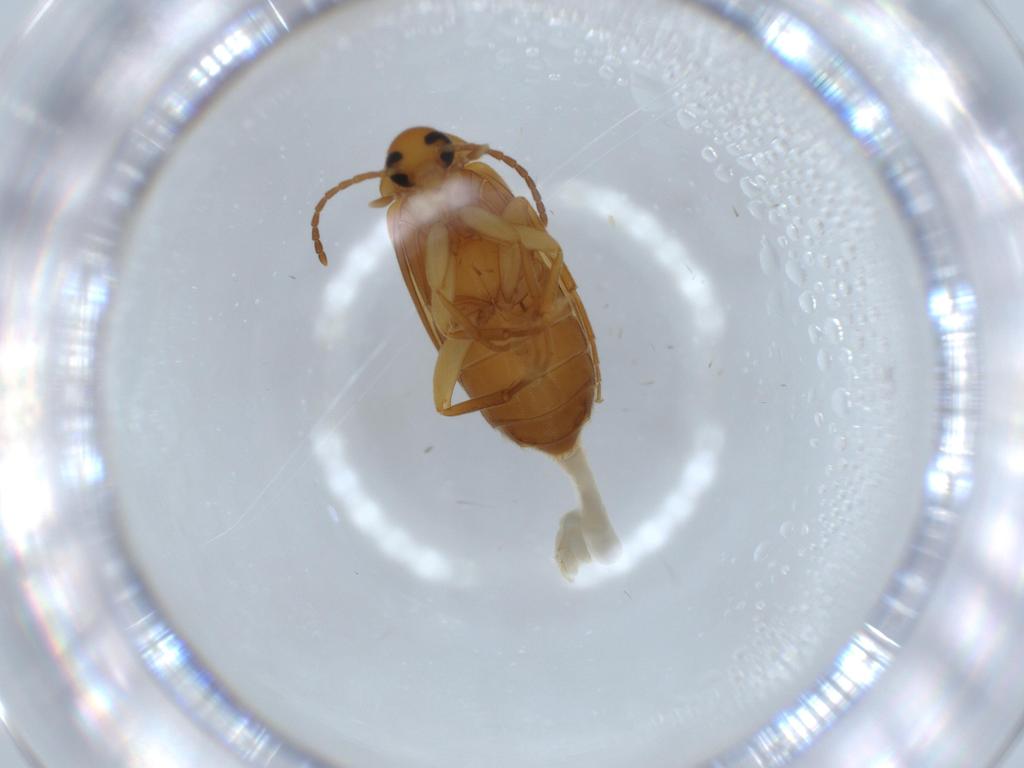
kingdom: Animalia
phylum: Arthropoda
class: Insecta
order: Coleoptera
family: Scraptiidae
